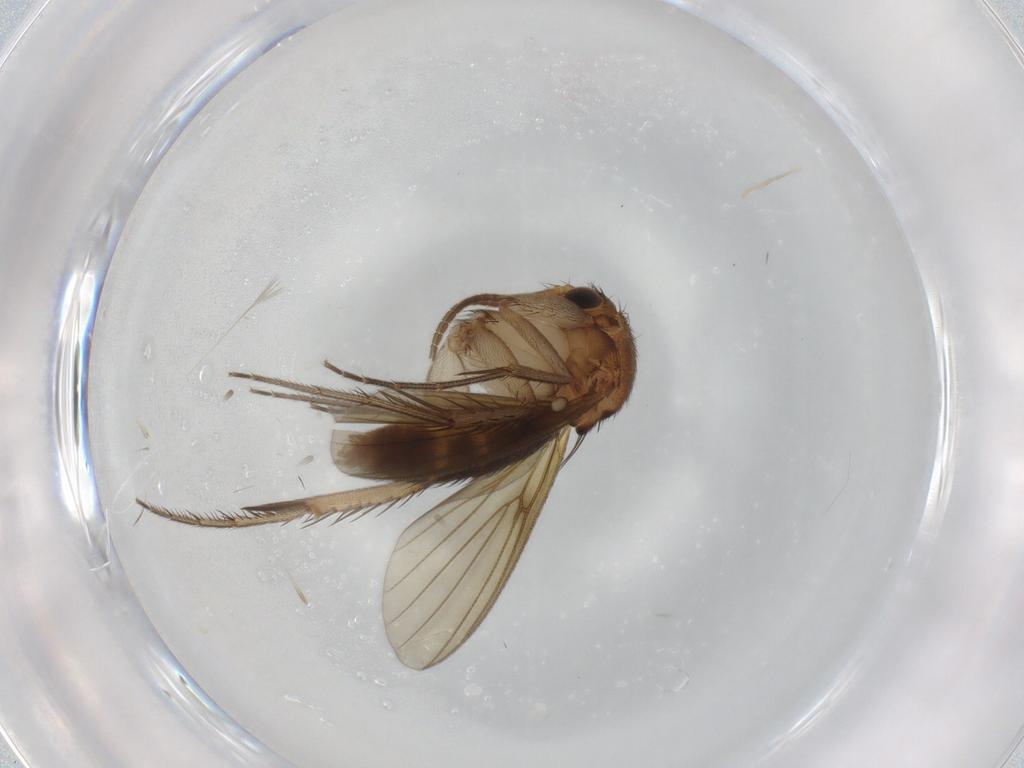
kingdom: Animalia
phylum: Arthropoda
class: Insecta
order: Diptera
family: Mycetophilidae
